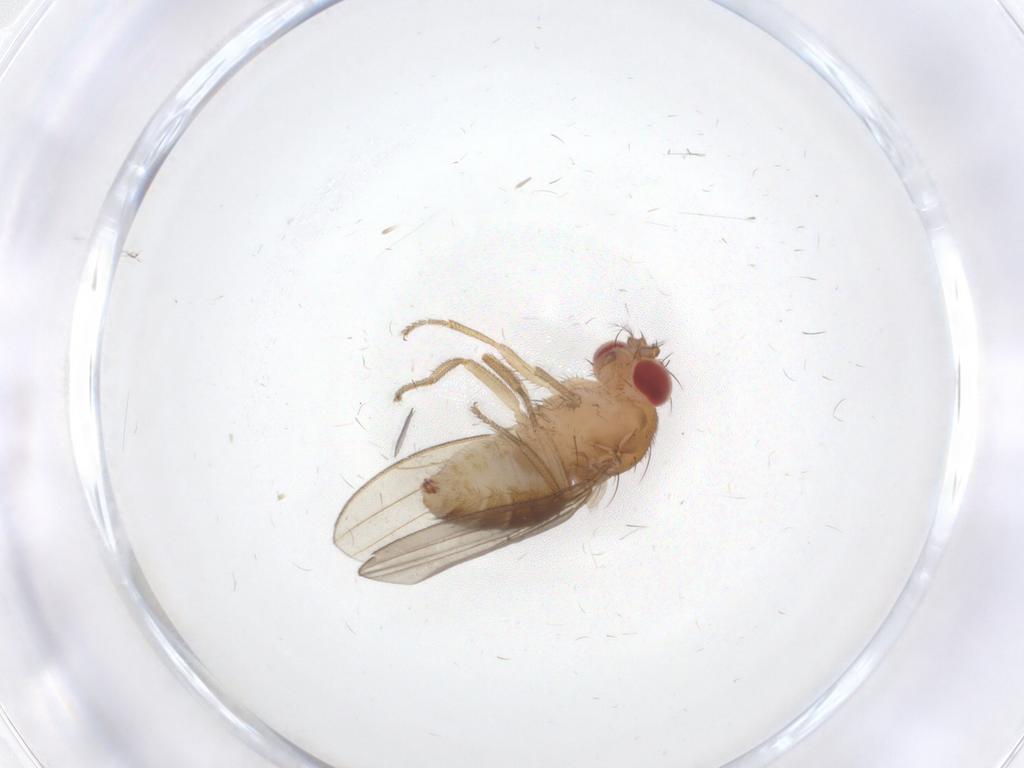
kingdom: Animalia
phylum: Arthropoda
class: Insecta
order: Diptera
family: Drosophilidae
